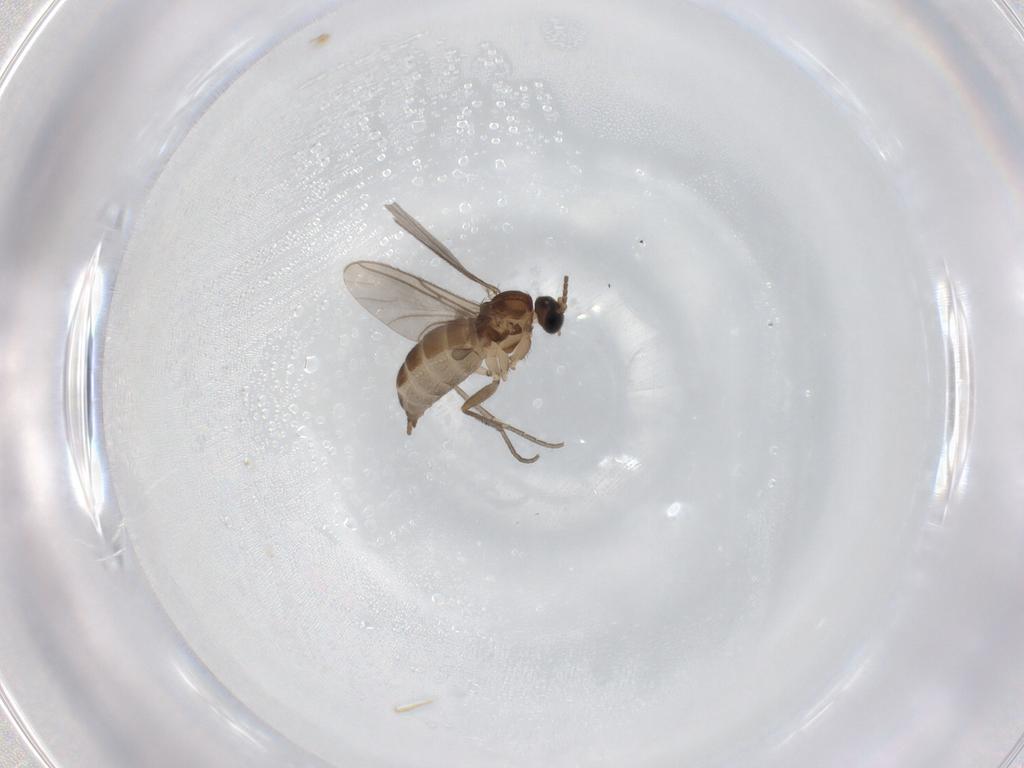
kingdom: Animalia
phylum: Arthropoda
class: Insecta
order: Diptera
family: Sciaridae
